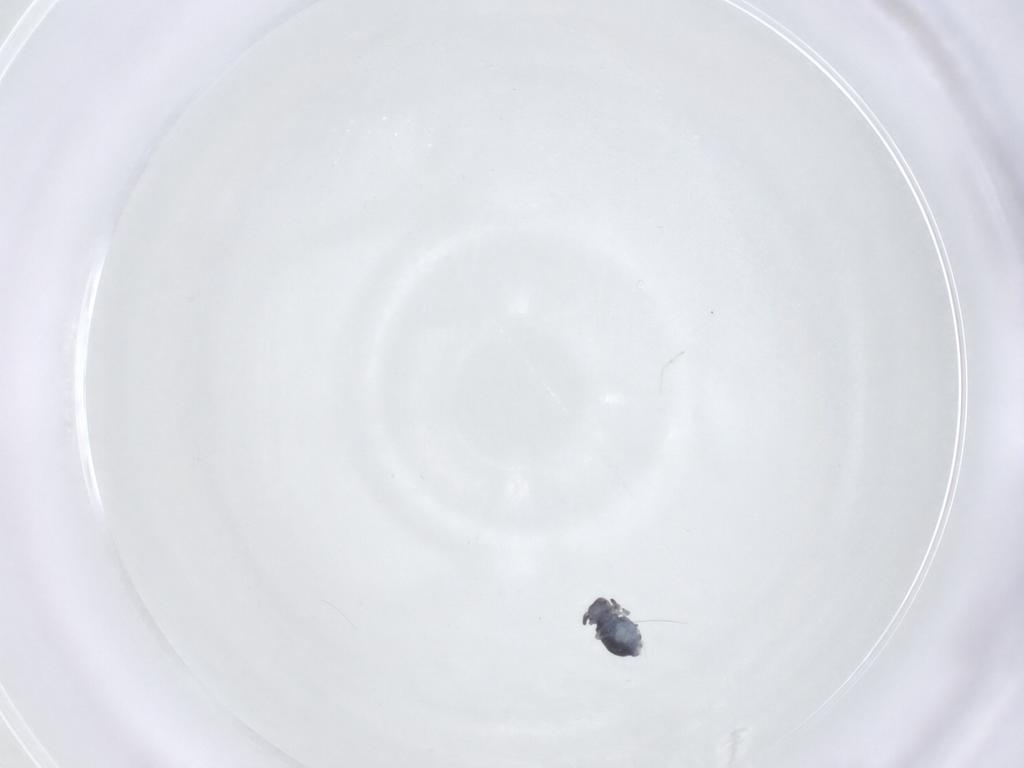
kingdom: Animalia
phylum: Arthropoda
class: Collembola
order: Symphypleona
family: Katiannidae
